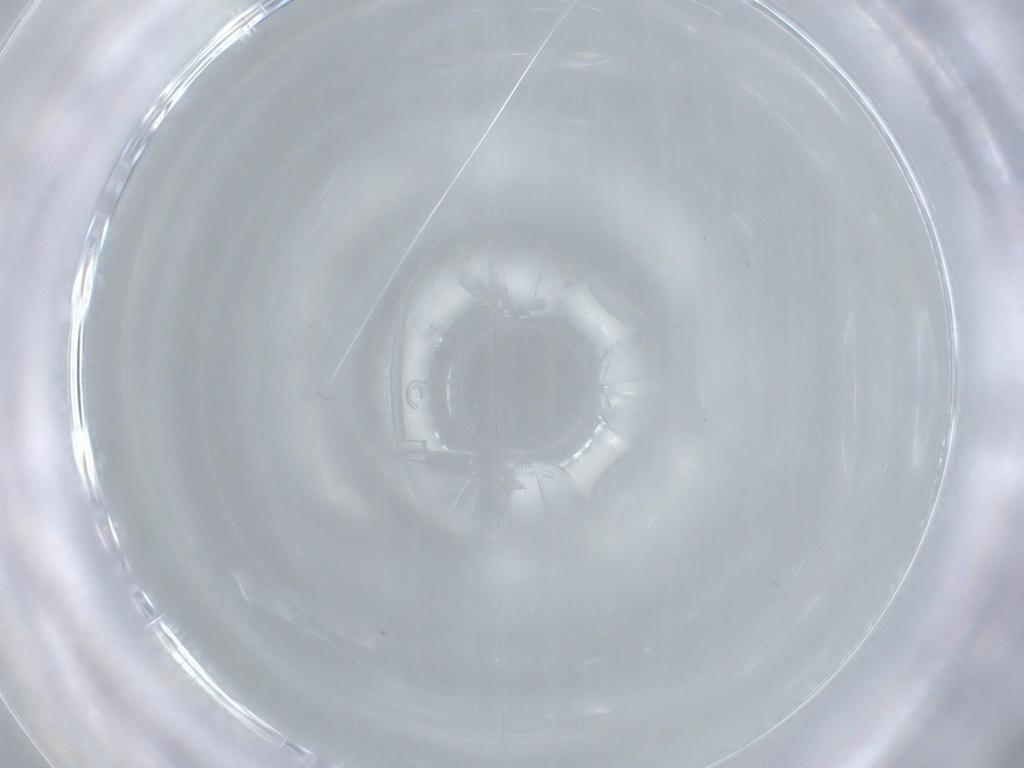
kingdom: Animalia
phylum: Arthropoda
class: Insecta
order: Diptera
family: Cecidomyiidae
